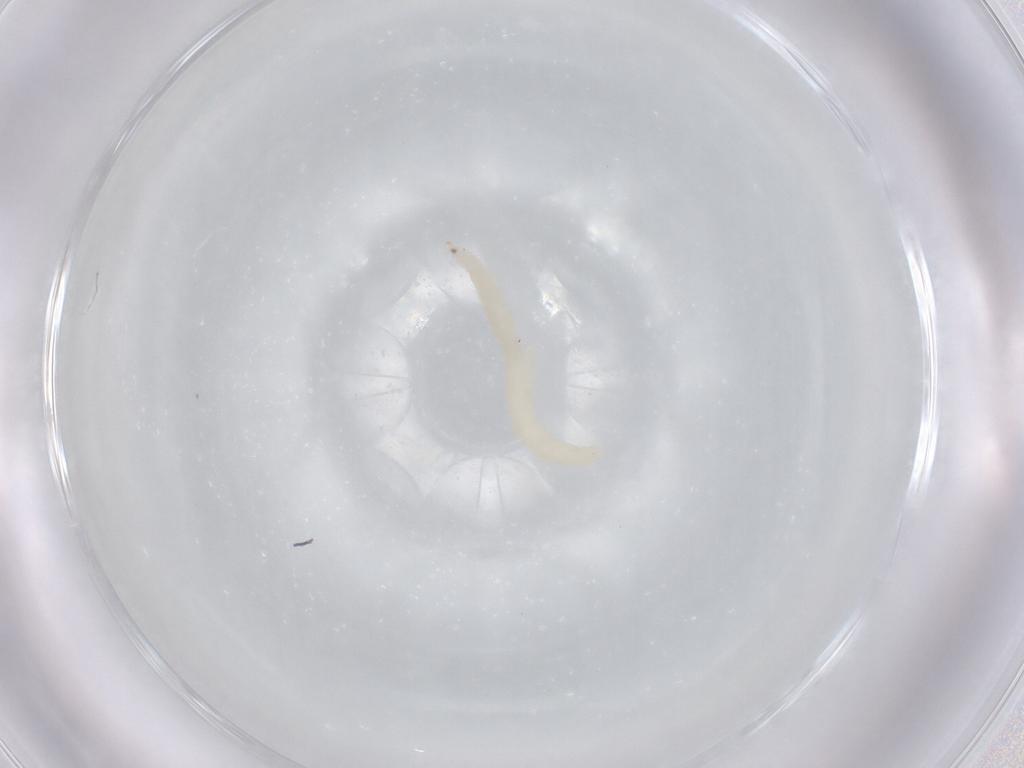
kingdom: Animalia
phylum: Arthropoda
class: Insecta
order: Diptera
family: Cecidomyiidae
